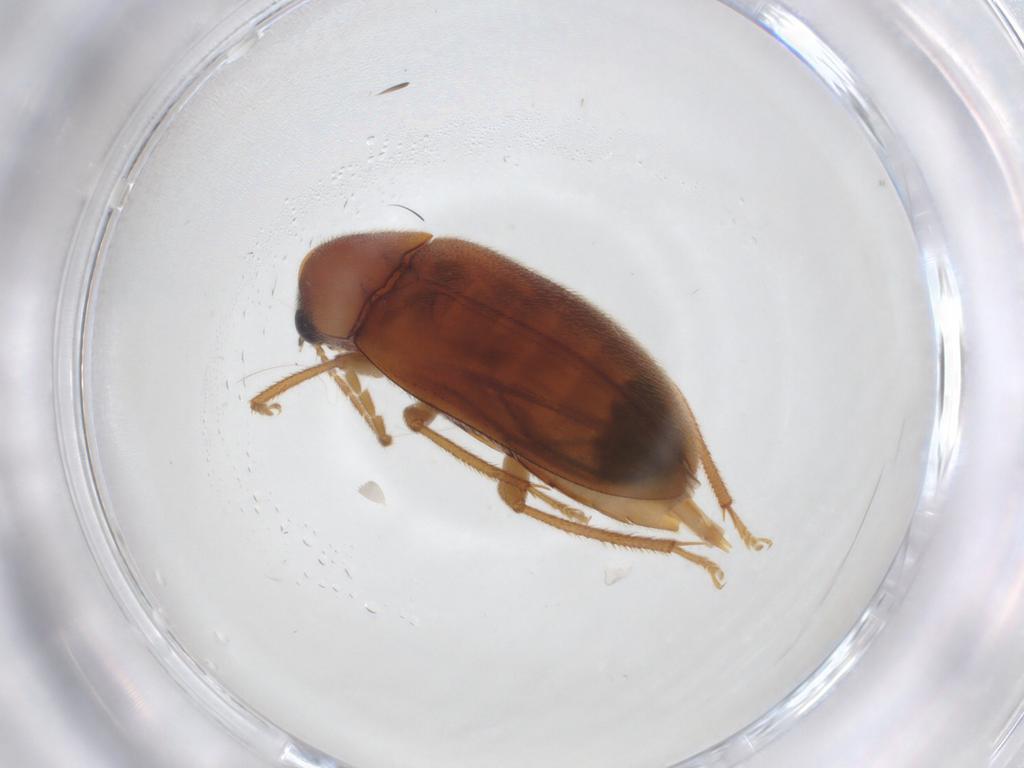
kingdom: Animalia
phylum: Arthropoda
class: Insecta
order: Coleoptera
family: Ptilodactylidae
